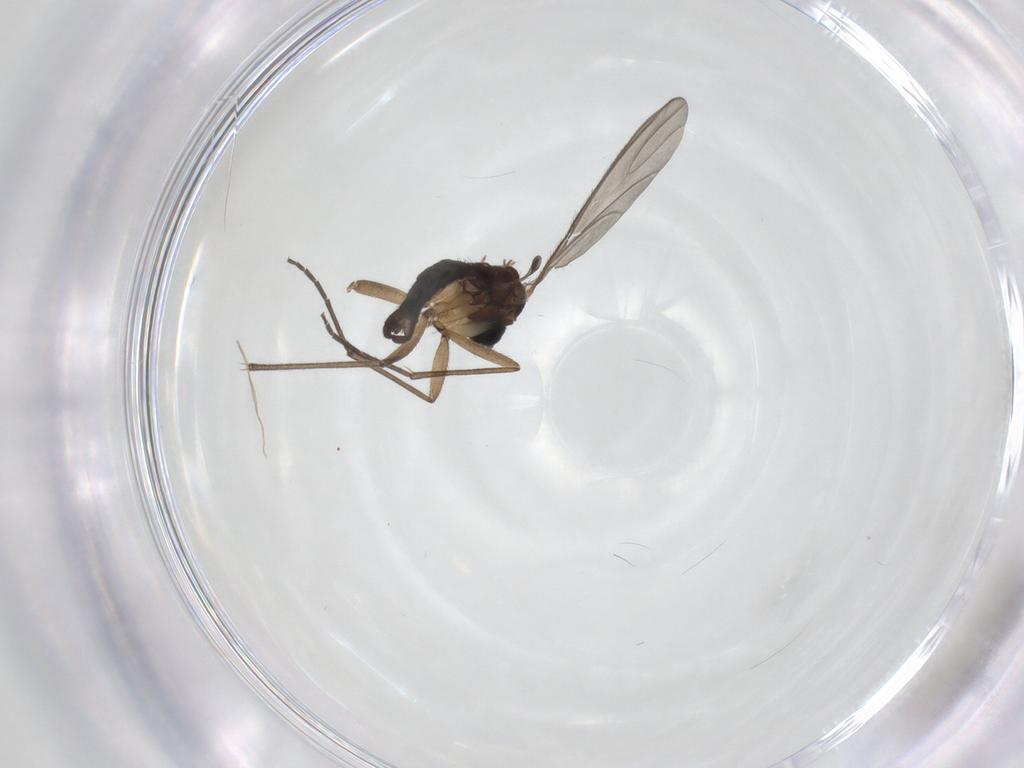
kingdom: Animalia
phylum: Arthropoda
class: Insecta
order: Diptera
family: Sciaridae
